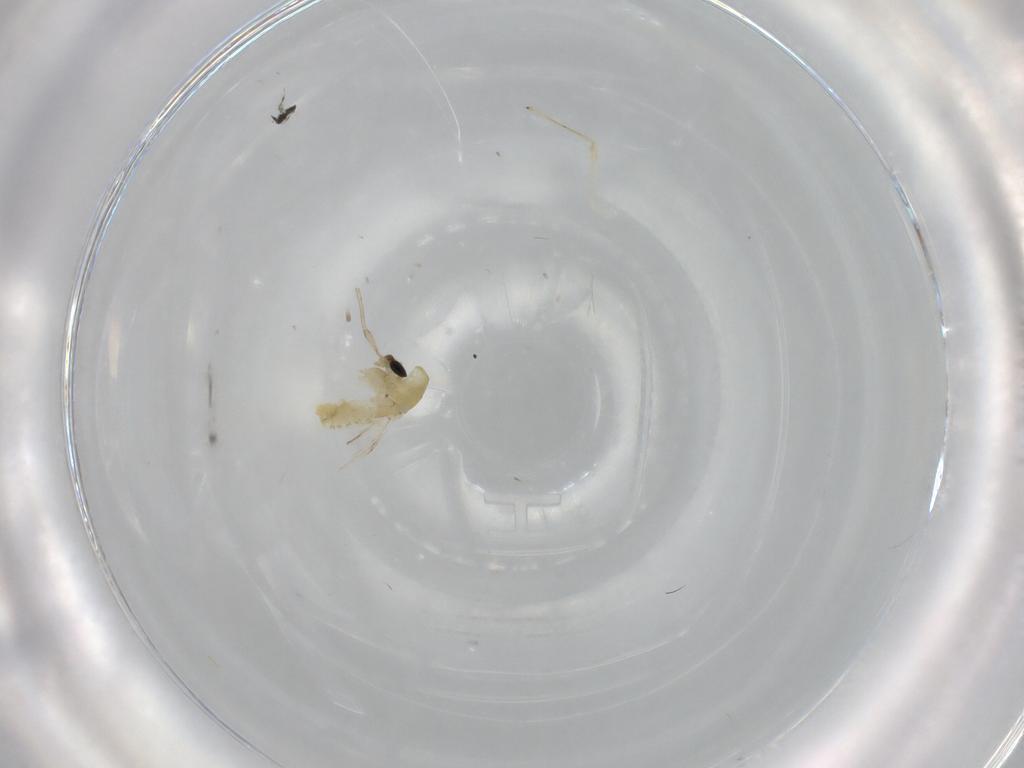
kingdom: Animalia
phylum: Arthropoda
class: Insecta
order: Diptera
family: Chironomidae
